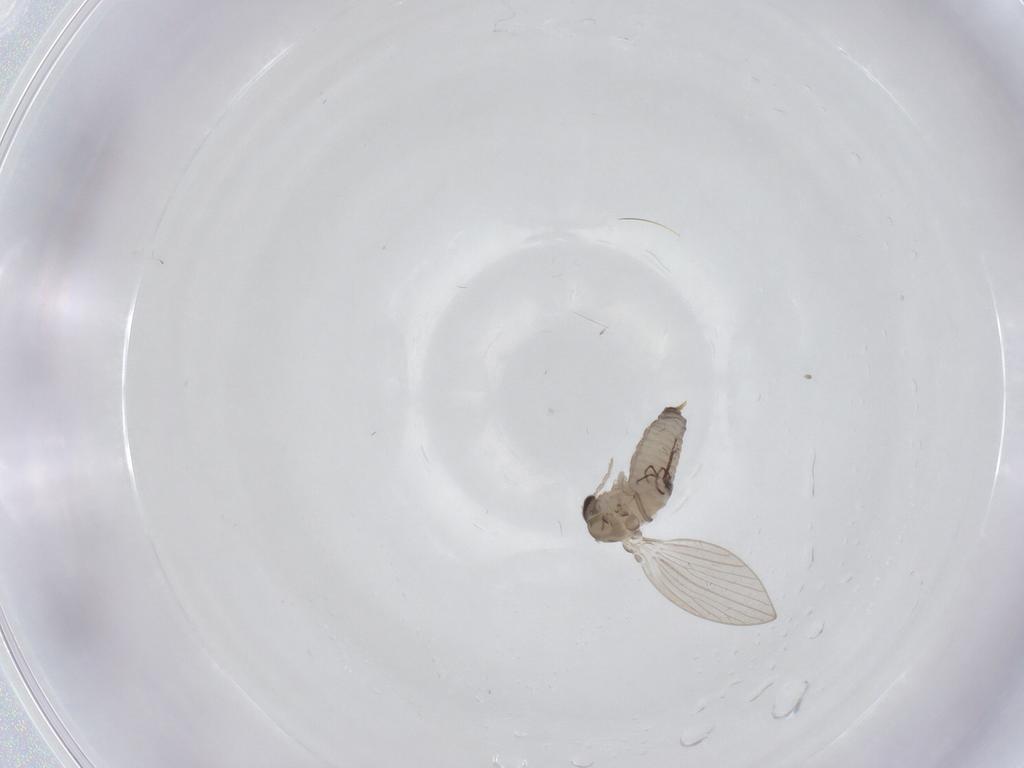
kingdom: Animalia
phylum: Arthropoda
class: Insecta
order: Diptera
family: Psychodidae
